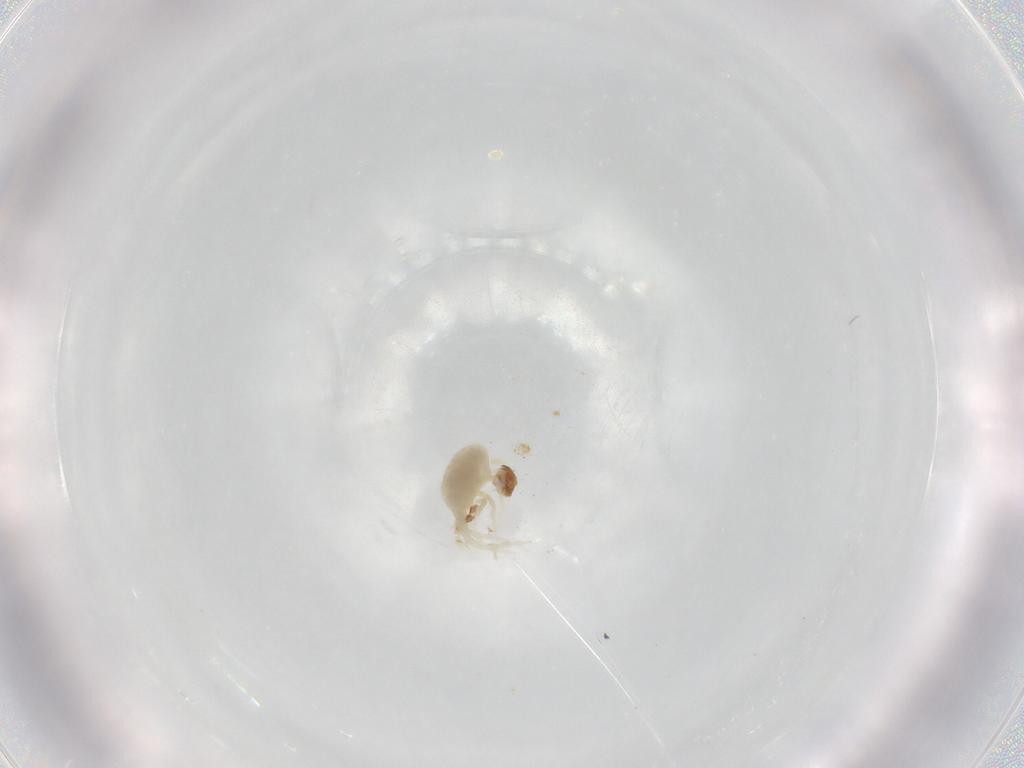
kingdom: Animalia
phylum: Arthropoda
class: Arachnida
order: Trombidiformes
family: Rhagidiidae
